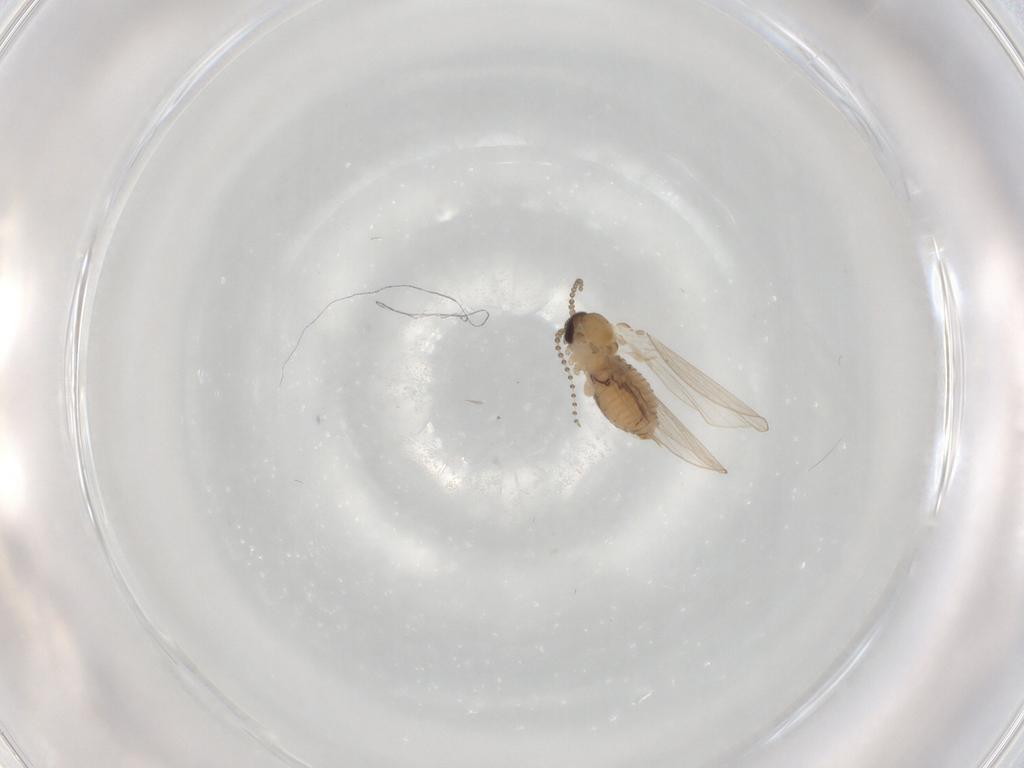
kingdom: Animalia
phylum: Arthropoda
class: Insecta
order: Diptera
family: Psychodidae
